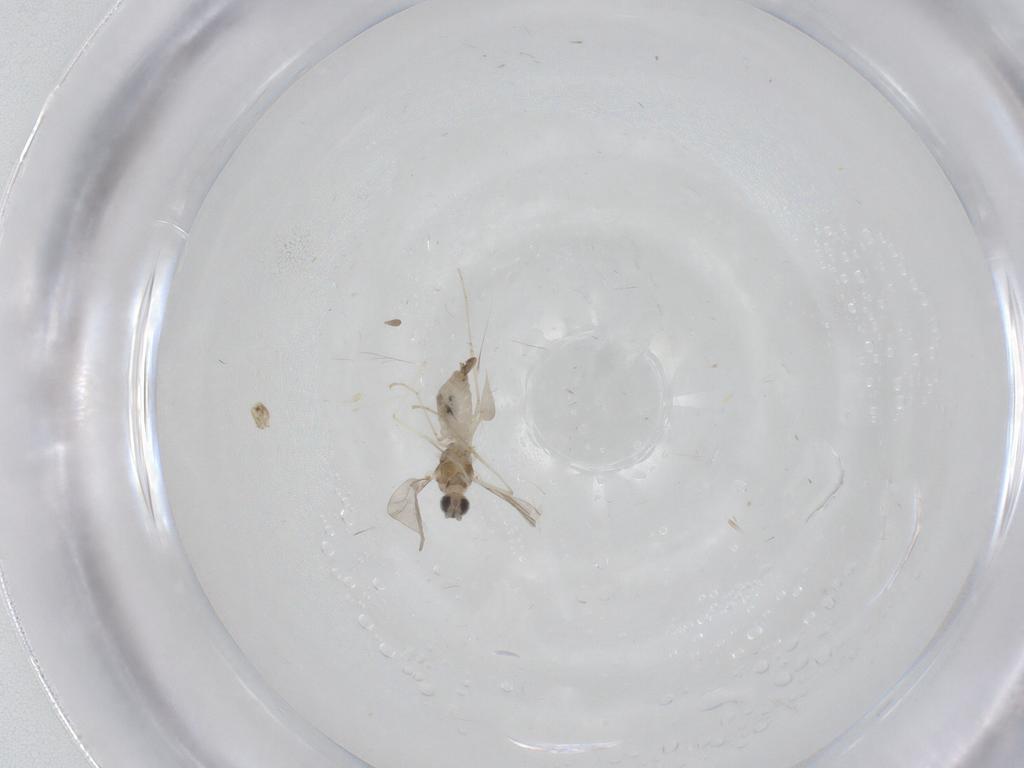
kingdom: Animalia
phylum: Arthropoda
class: Insecta
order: Diptera
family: Cecidomyiidae
